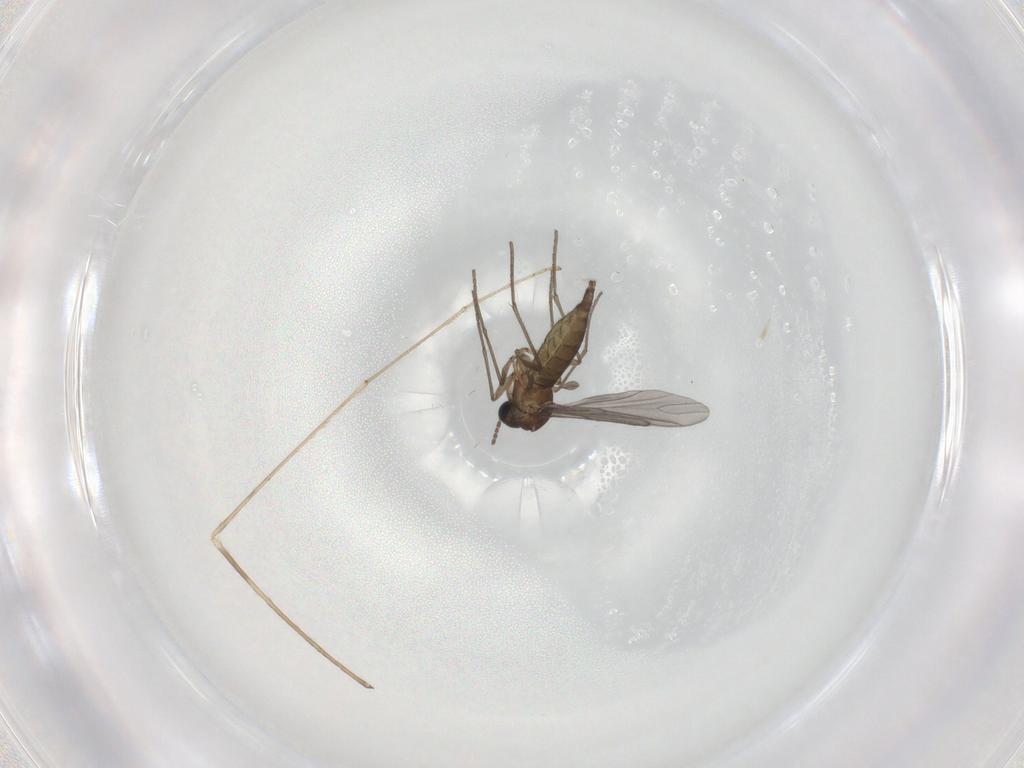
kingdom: Animalia
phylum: Arthropoda
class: Insecta
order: Diptera
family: Sciaridae
